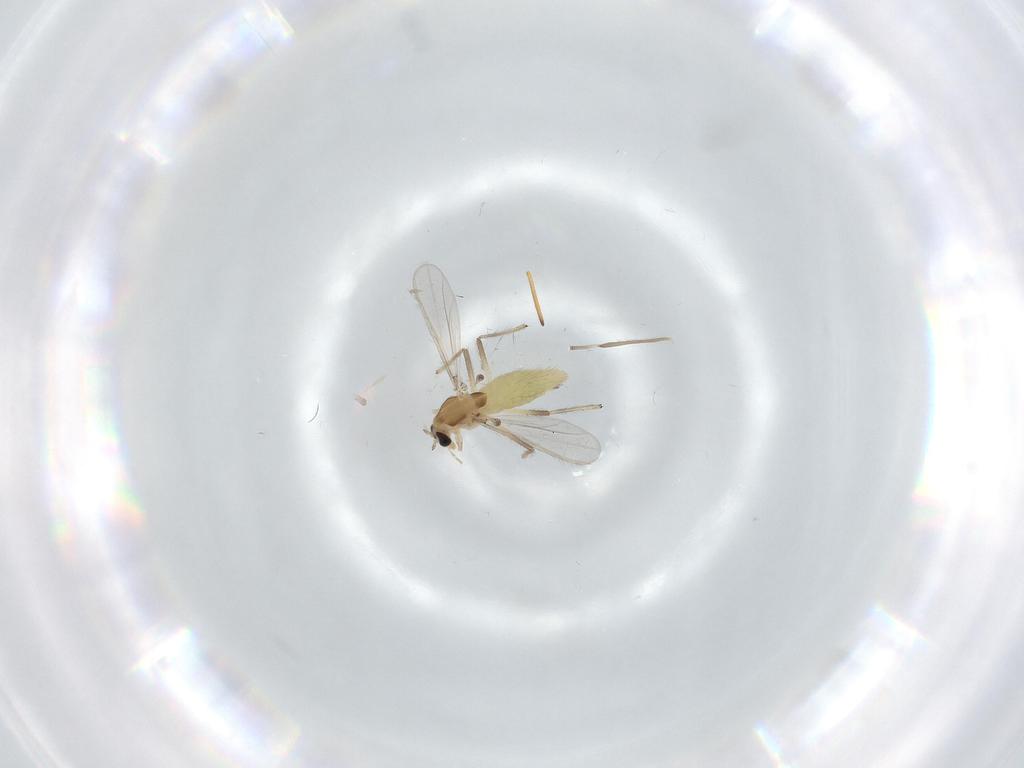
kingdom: Animalia
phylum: Arthropoda
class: Insecta
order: Diptera
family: Chironomidae
